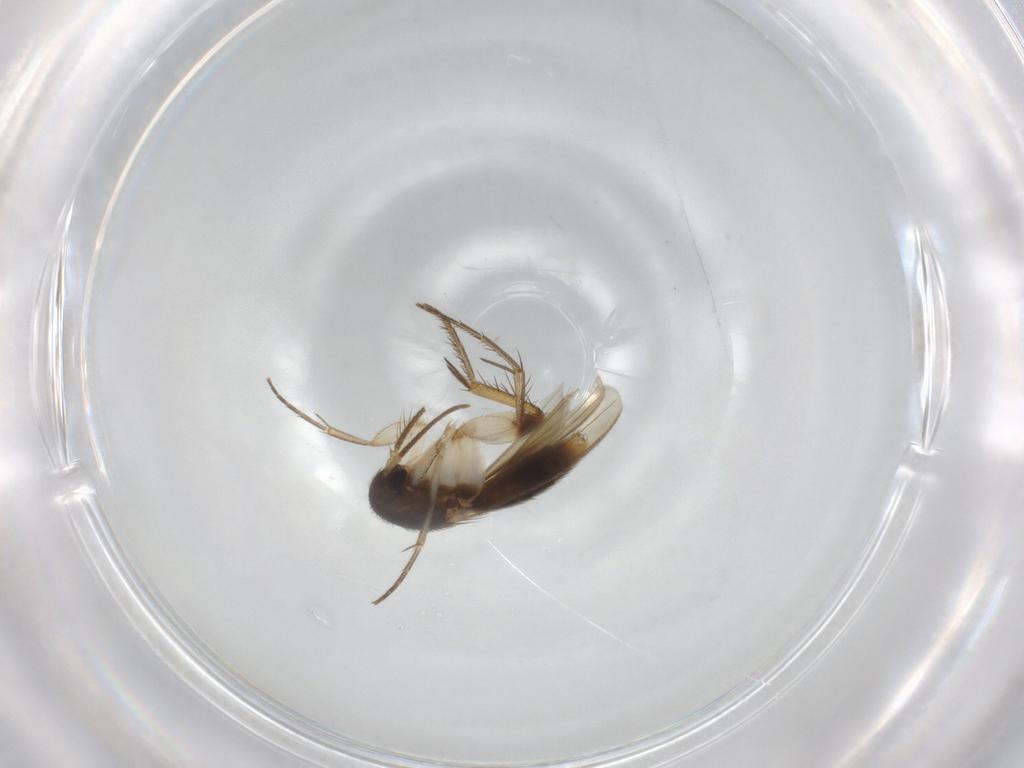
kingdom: Animalia
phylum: Arthropoda
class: Insecta
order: Diptera
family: Mycetophilidae
